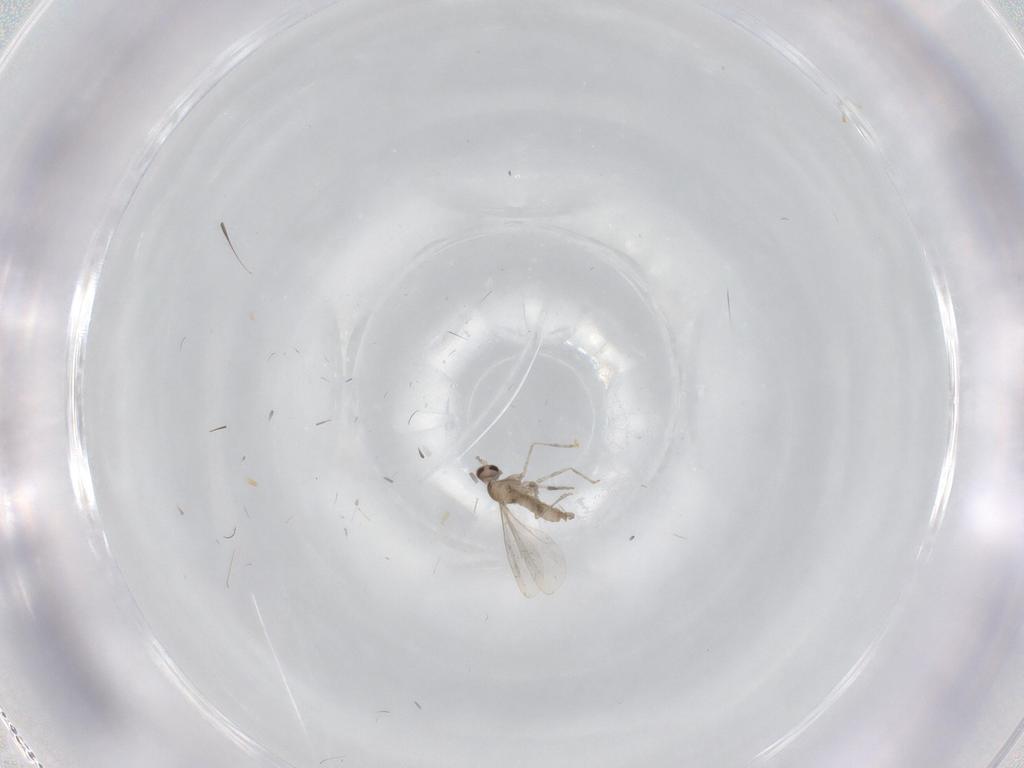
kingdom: Animalia
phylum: Arthropoda
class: Insecta
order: Diptera
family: Cecidomyiidae
